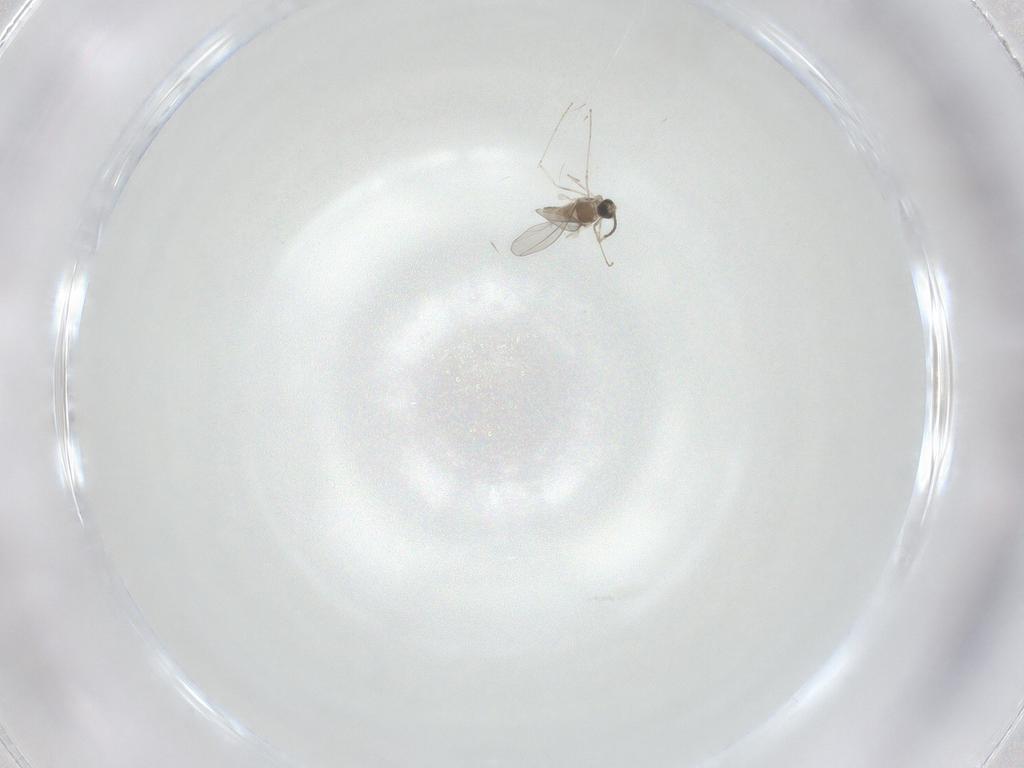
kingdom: Animalia
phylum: Arthropoda
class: Insecta
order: Diptera
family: Cecidomyiidae
